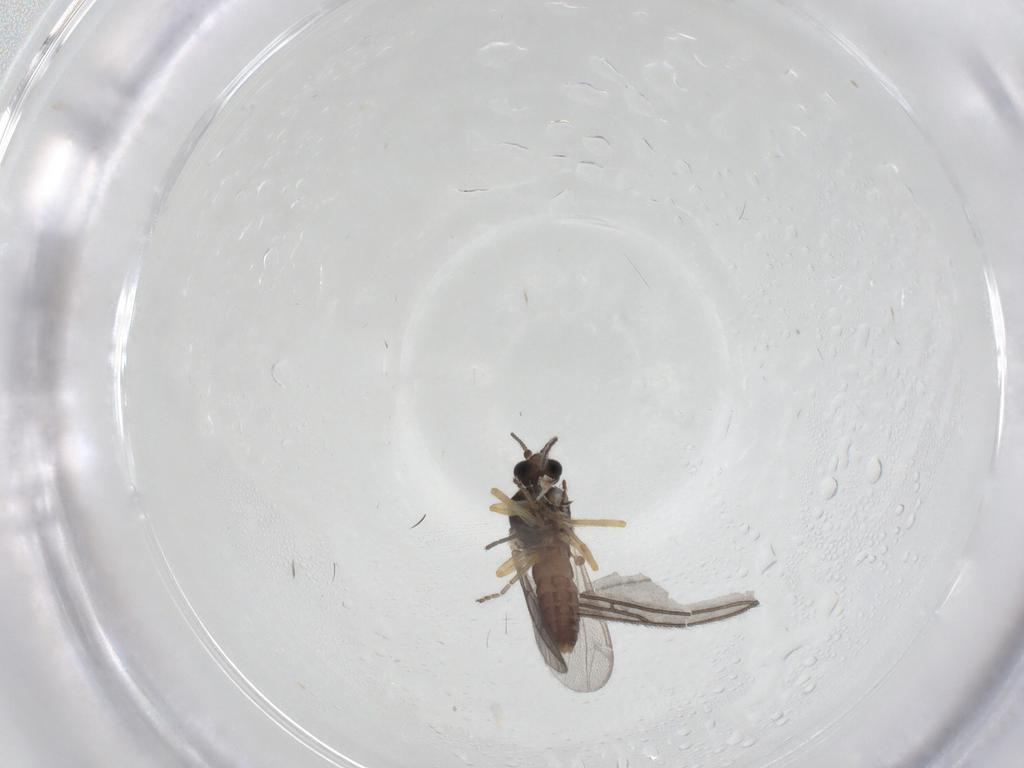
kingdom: Animalia
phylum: Arthropoda
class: Insecta
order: Diptera
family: Ceratopogonidae
